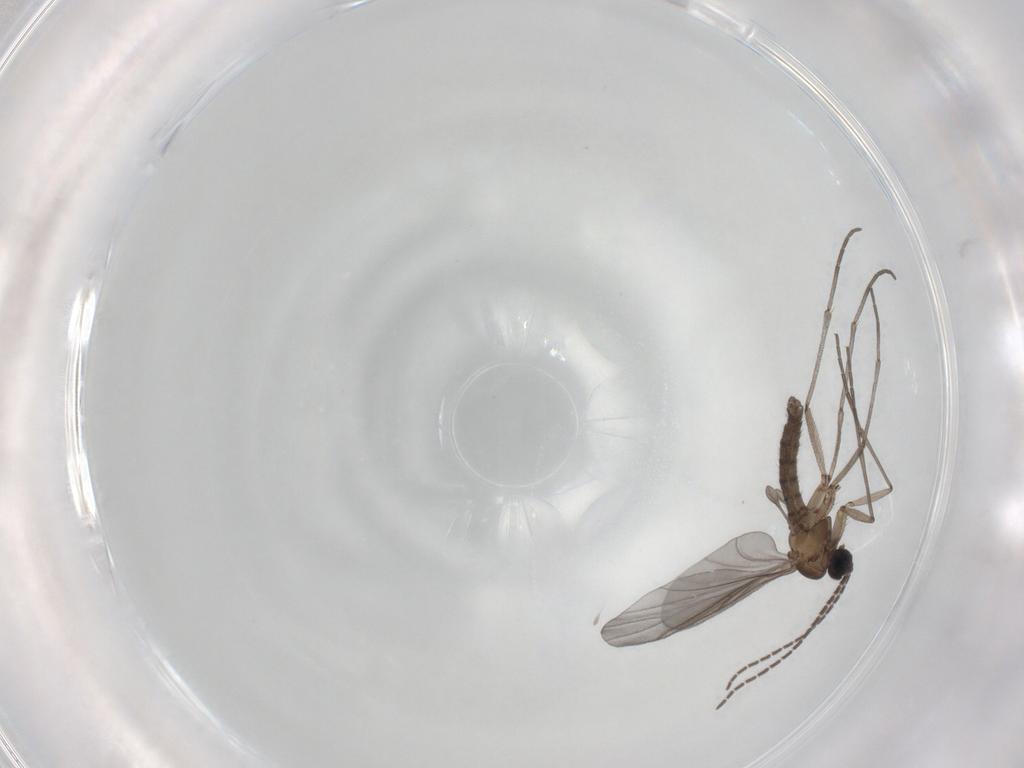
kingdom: Animalia
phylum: Arthropoda
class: Insecta
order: Diptera
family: Sciaridae
